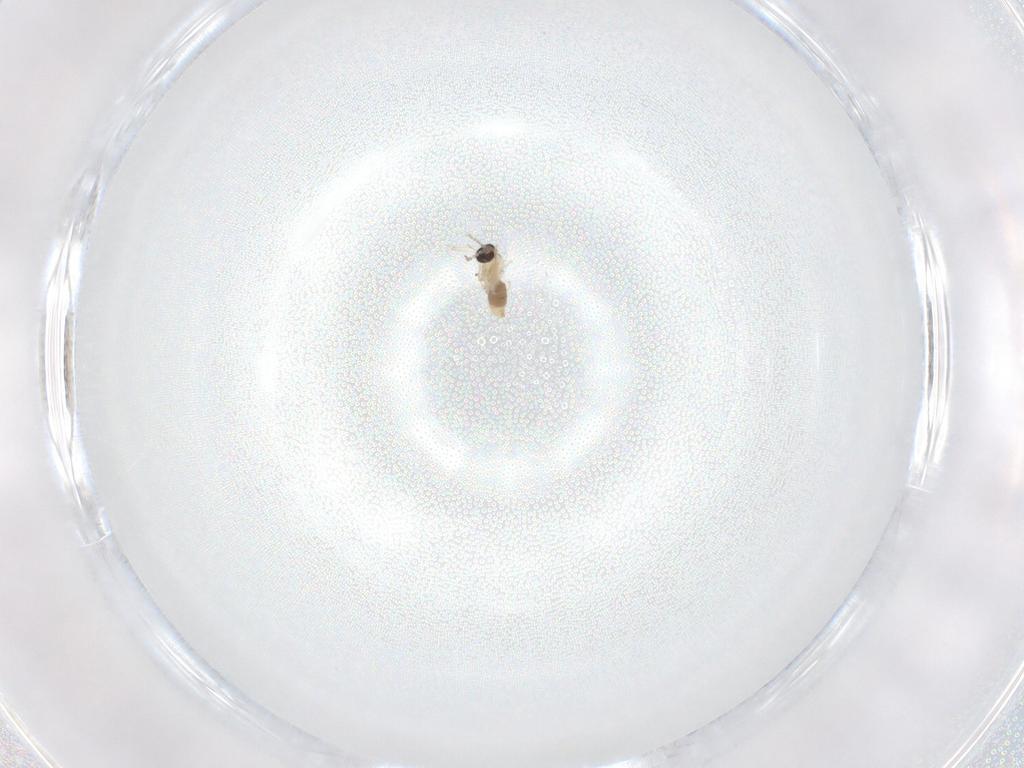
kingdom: Animalia
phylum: Arthropoda
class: Insecta
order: Diptera
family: Cecidomyiidae
